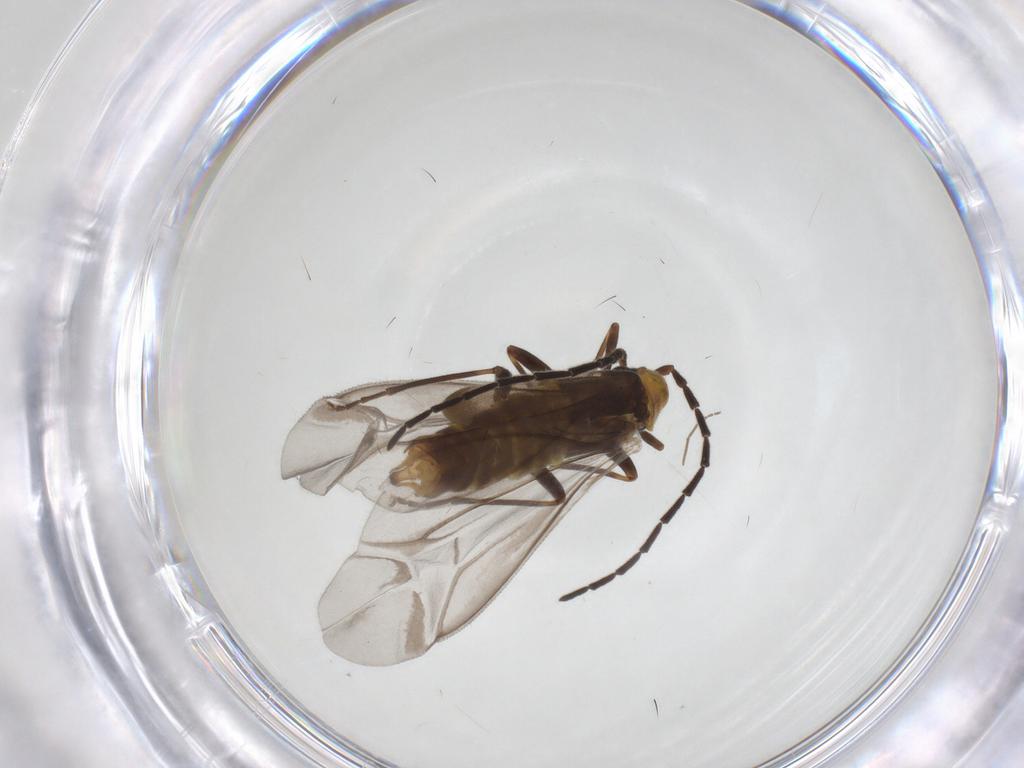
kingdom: Animalia
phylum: Arthropoda
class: Insecta
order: Coleoptera
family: Cantharidae
